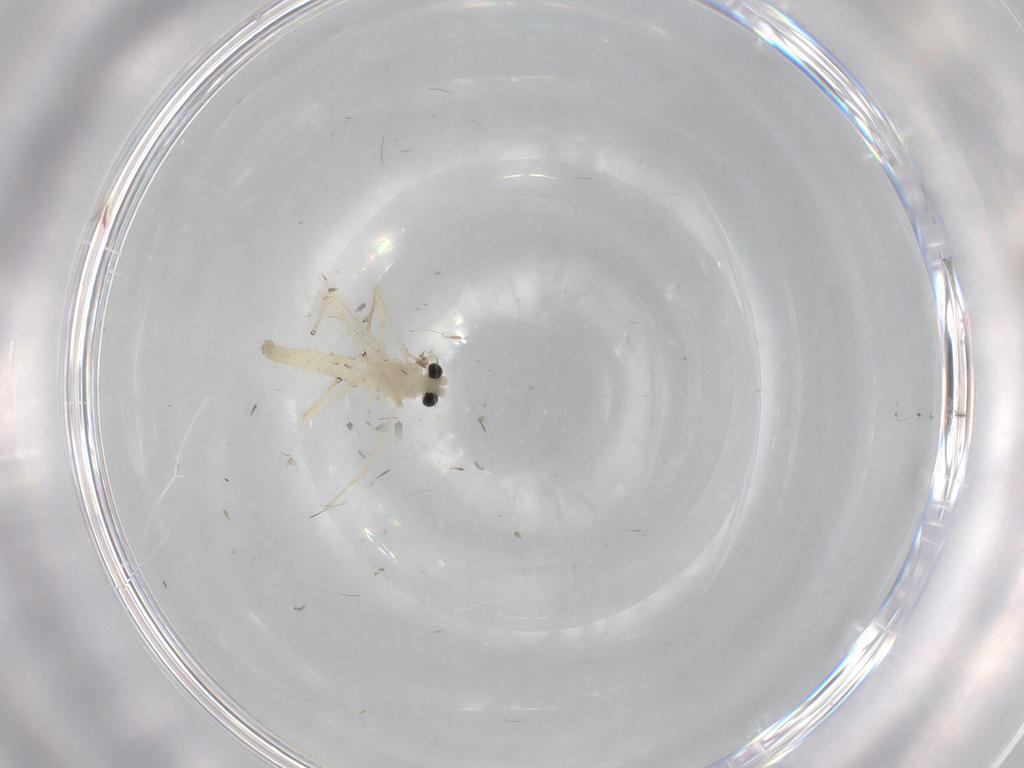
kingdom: Animalia
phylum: Arthropoda
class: Insecta
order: Diptera
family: Chironomidae
